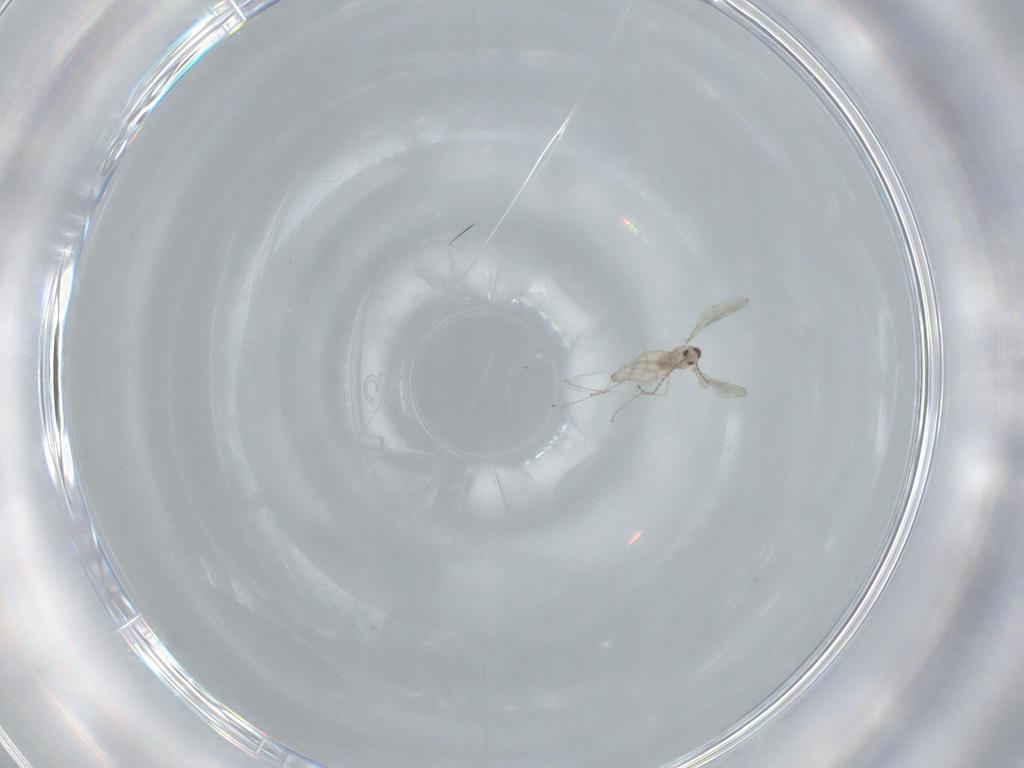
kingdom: Animalia
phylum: Arthropoda
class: Insecta
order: Diptera
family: Cecidomyiidae
